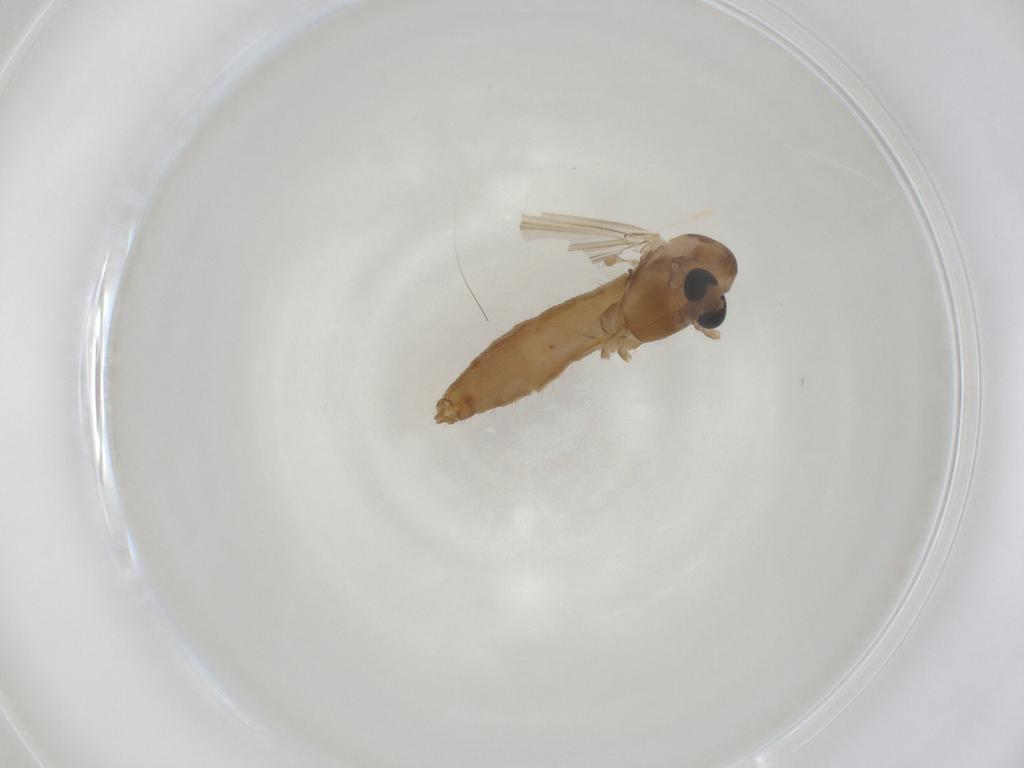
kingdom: Animalia
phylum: Arthropoda
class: Insecta
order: Diptera
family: Chironomidae
